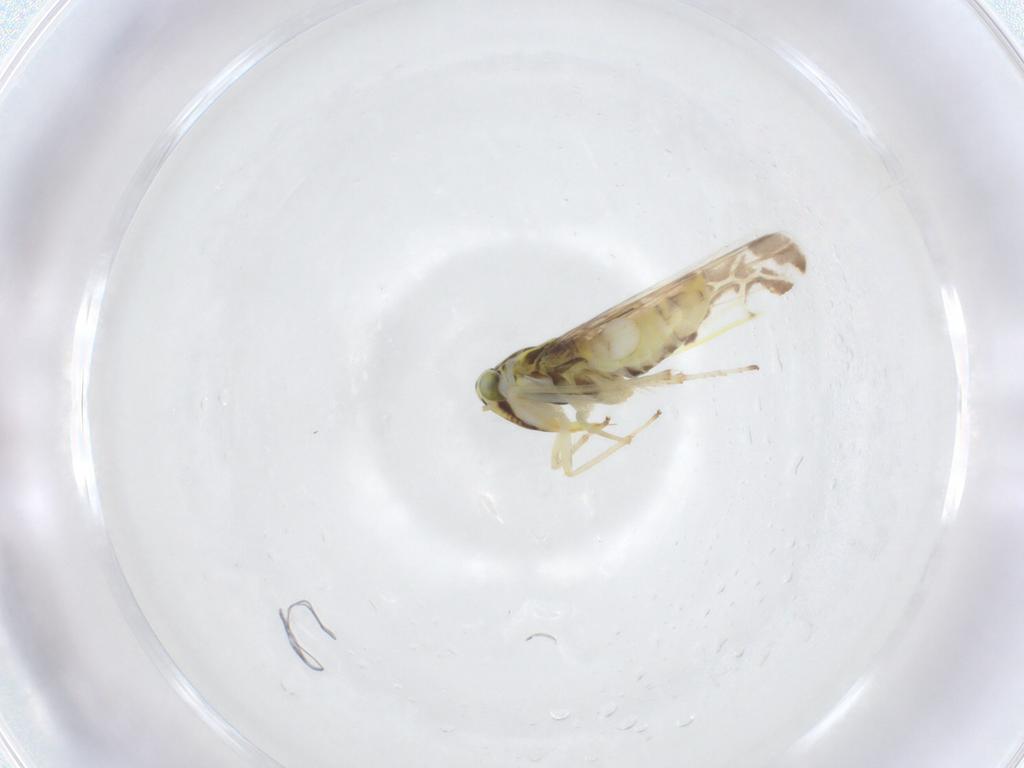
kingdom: Animalia
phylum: Arthropoda
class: Insecta
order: Hemiptera
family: Cicadellidae
